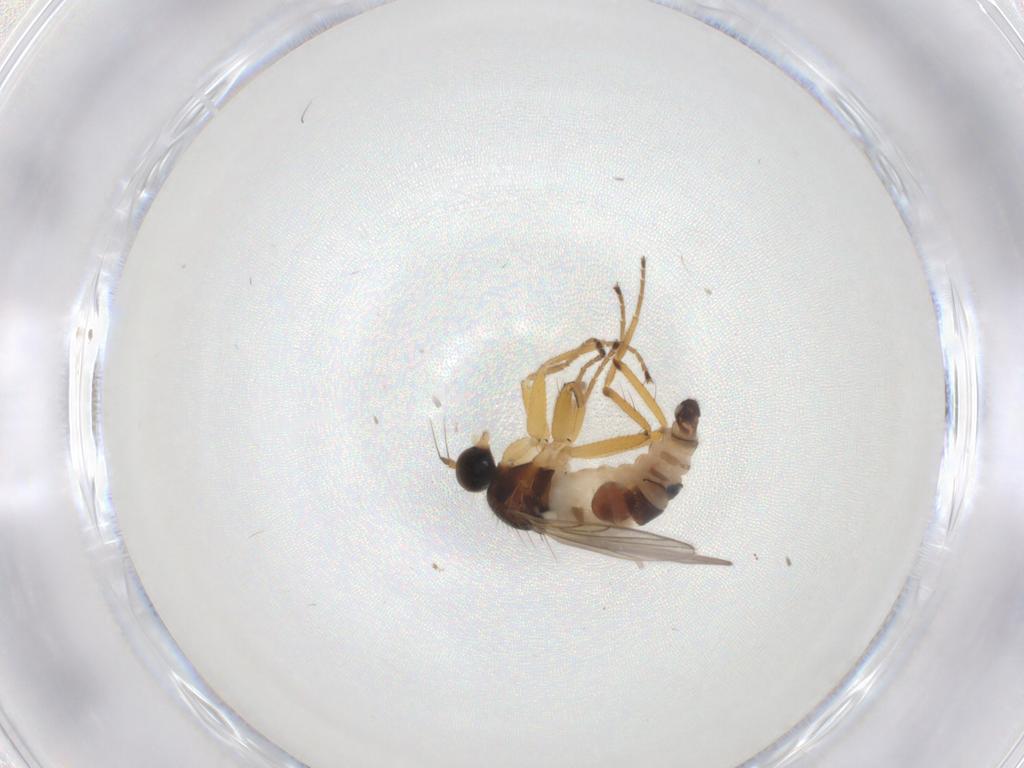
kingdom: Animalia
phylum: Arthropoda
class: Insecta
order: Diptera
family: Hybotidae
